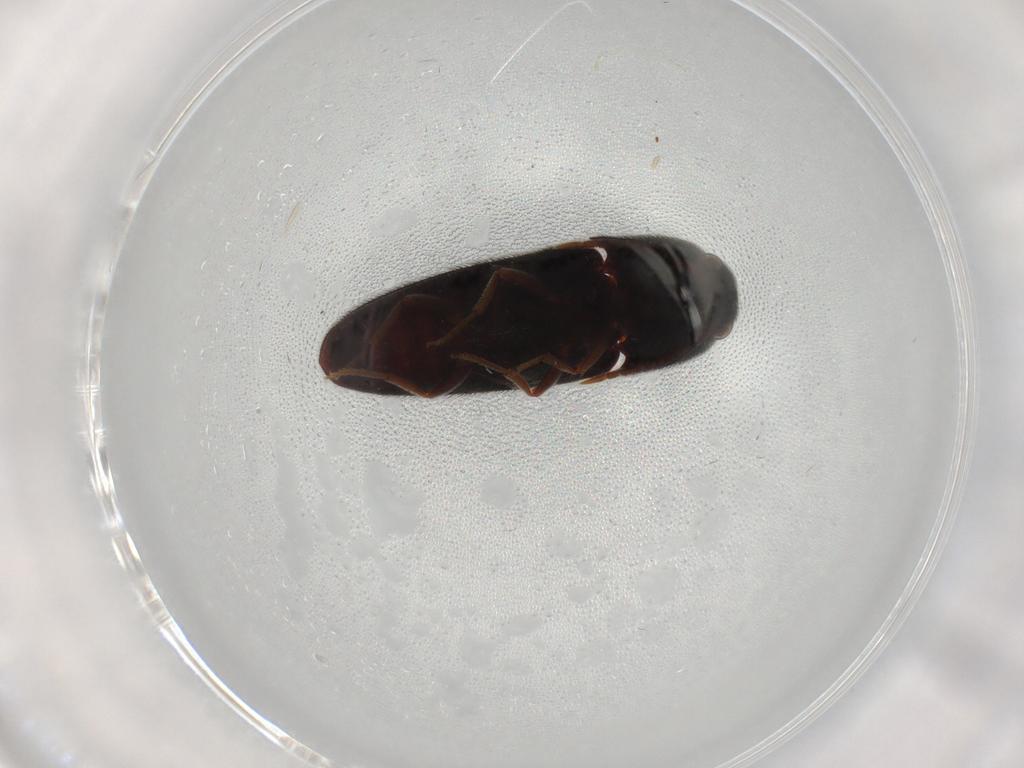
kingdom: Animalia
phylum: Arthropoda
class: Insecta
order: Coleoptera
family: Eucnemidae
